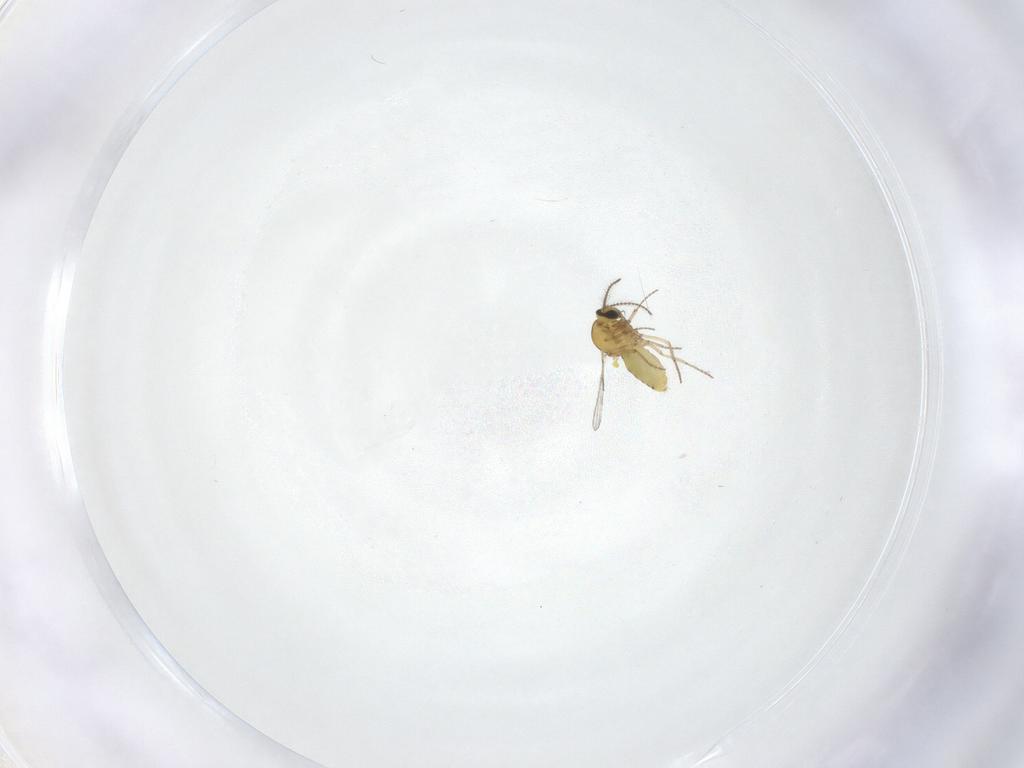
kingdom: Animalia
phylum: Arthropoda
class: Insecta
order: Diptera
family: Ceratopogonidae
